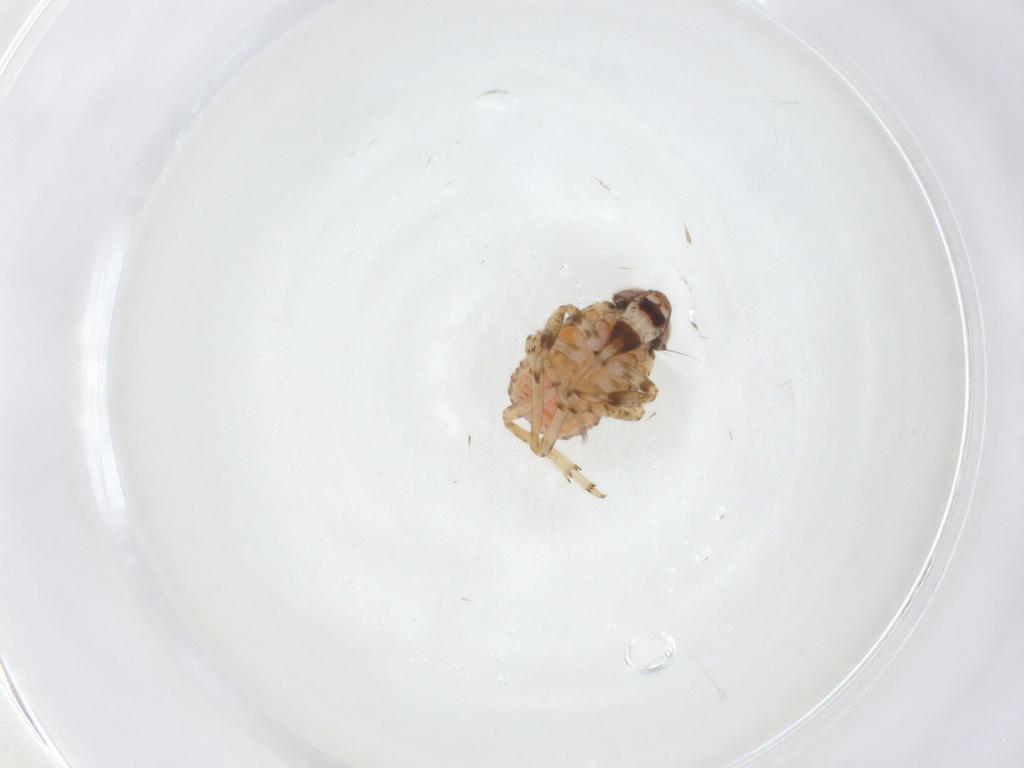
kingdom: Animalia
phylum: Arthropoda
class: Insecta
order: Hemiptera
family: Issidae
